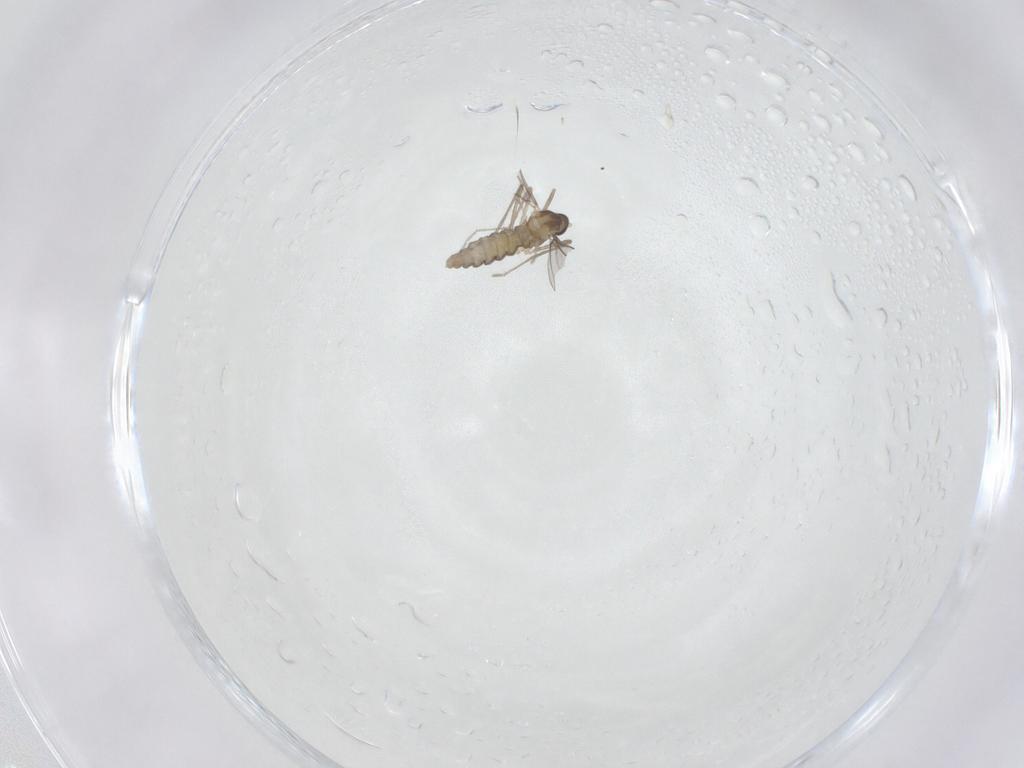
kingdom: Animalia
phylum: Arthropoda
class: Insecta
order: Diptera
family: Cecidomyiidae
